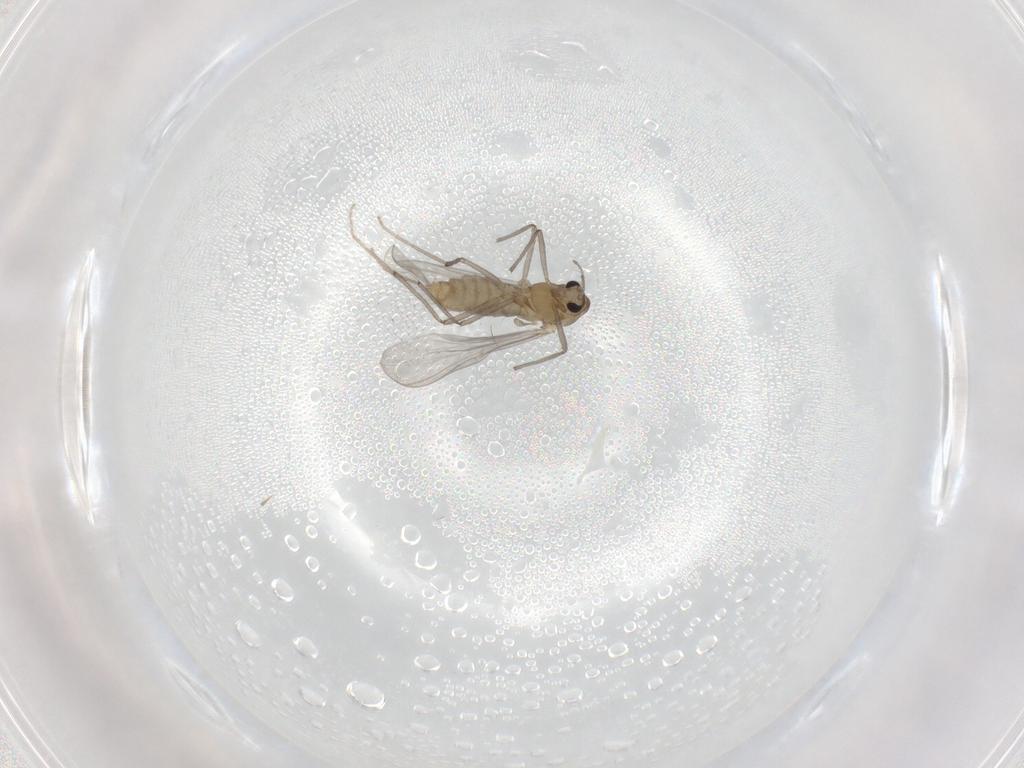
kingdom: Animalia
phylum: Arthropoda
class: Insecta
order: Diptera
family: Chironomidae
